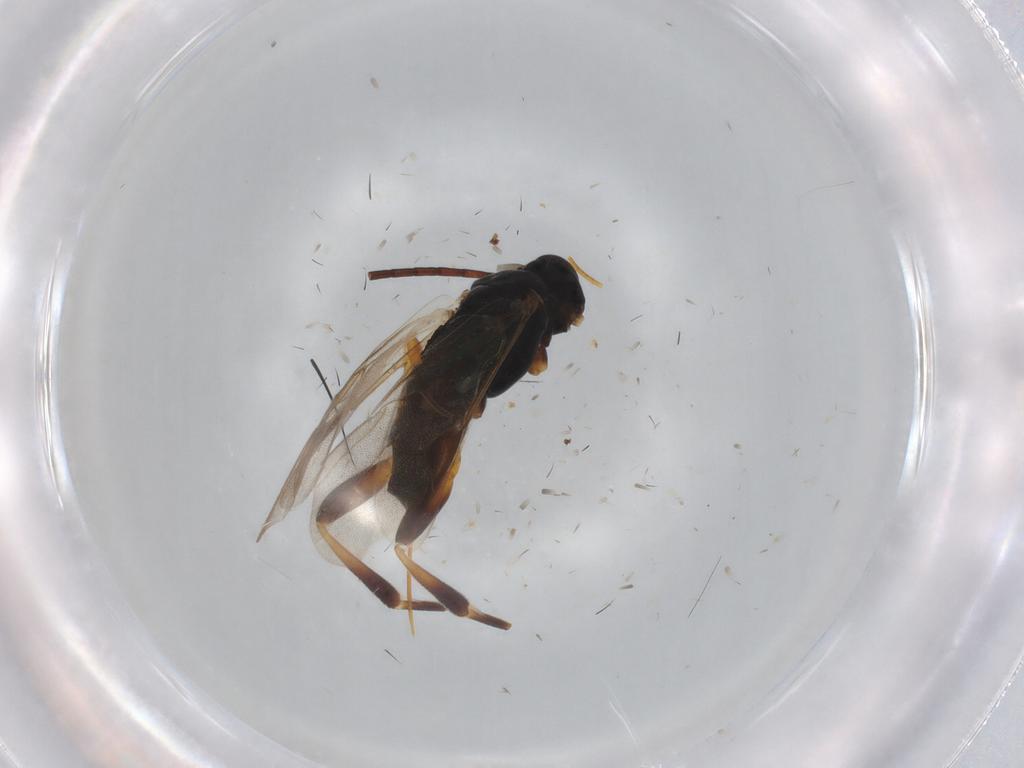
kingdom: Animalia
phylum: Arthropoda
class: Insecta
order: Hymenoptera
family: Braconidae
